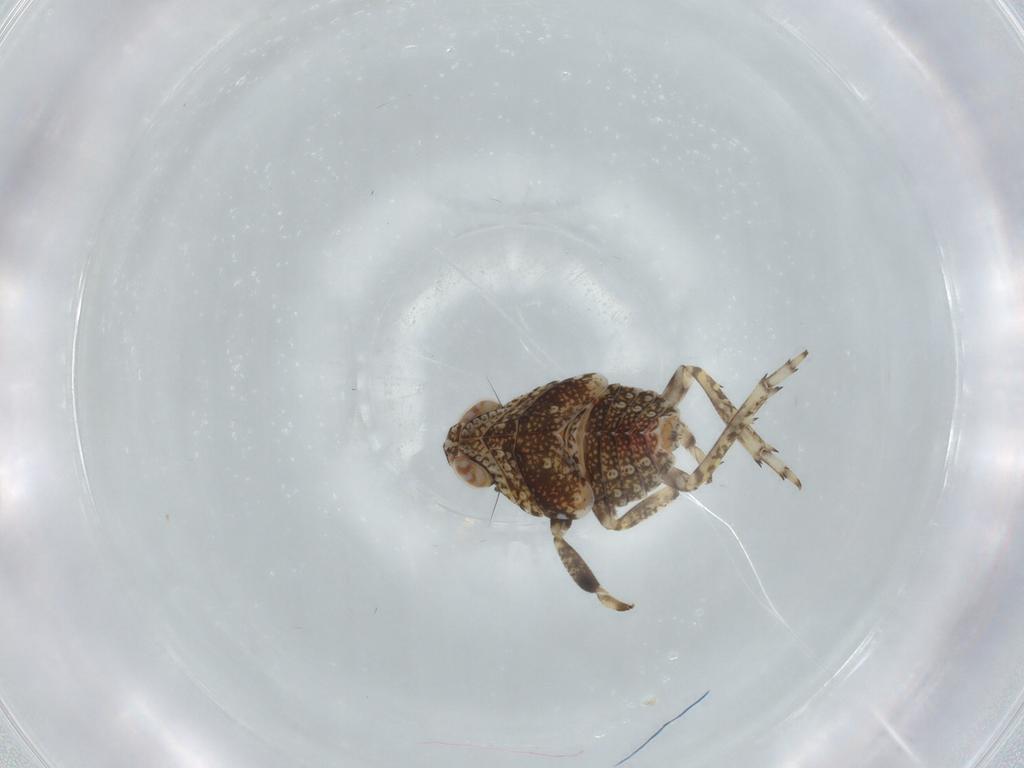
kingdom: Animalia
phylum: Arthropoda
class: Insecta
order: Hemiptera
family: Issidae
